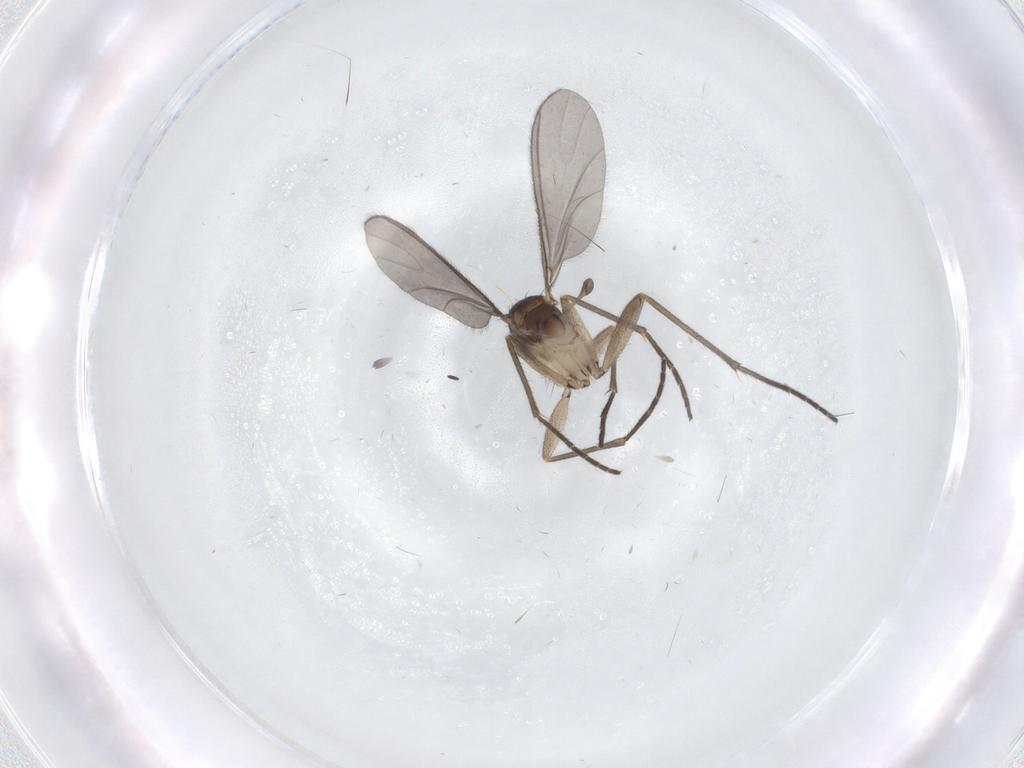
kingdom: Animalia
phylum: Arthropoda
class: Insecta
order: Diptera
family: Cecidomyiidae
